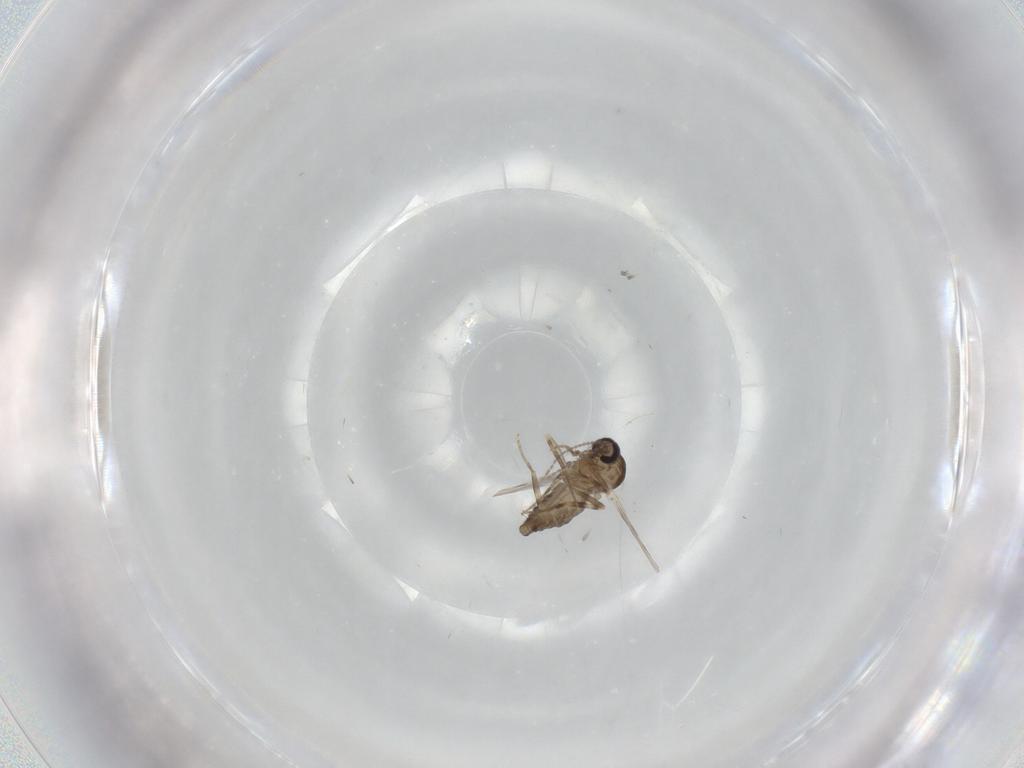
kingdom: Animalia
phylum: Arthropoda
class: Insecta
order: Diptera
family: Ceratopogonidae
